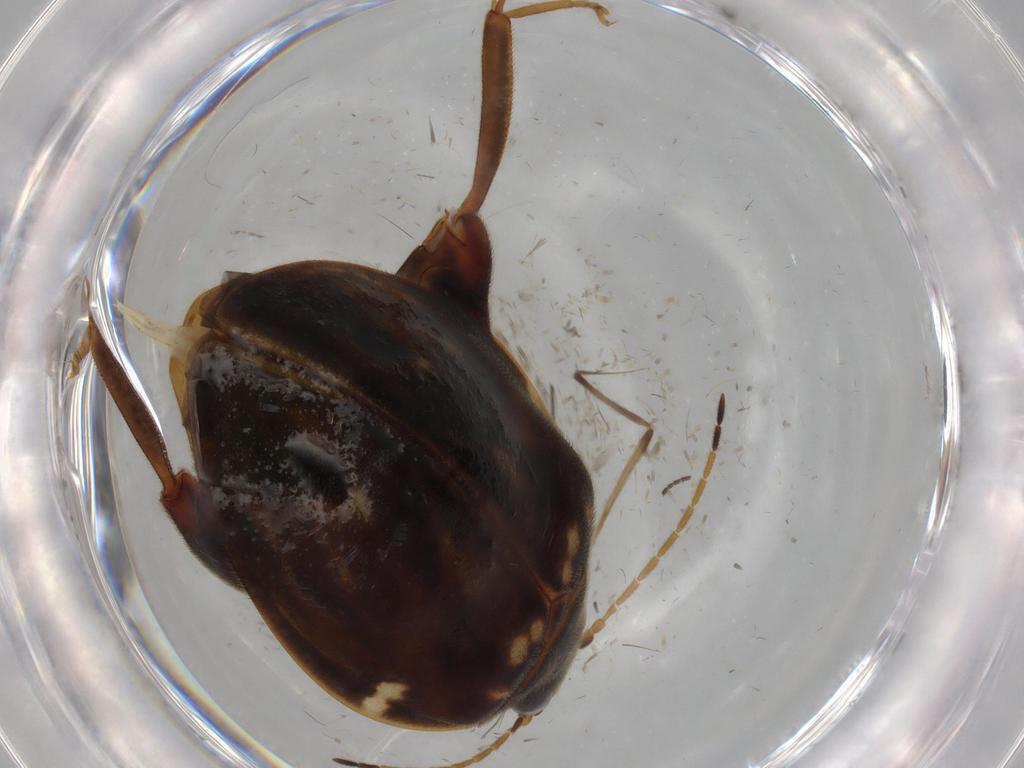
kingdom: Animalia
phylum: Arthropoda
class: Insecta
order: Coleoptera
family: Scirtidae
